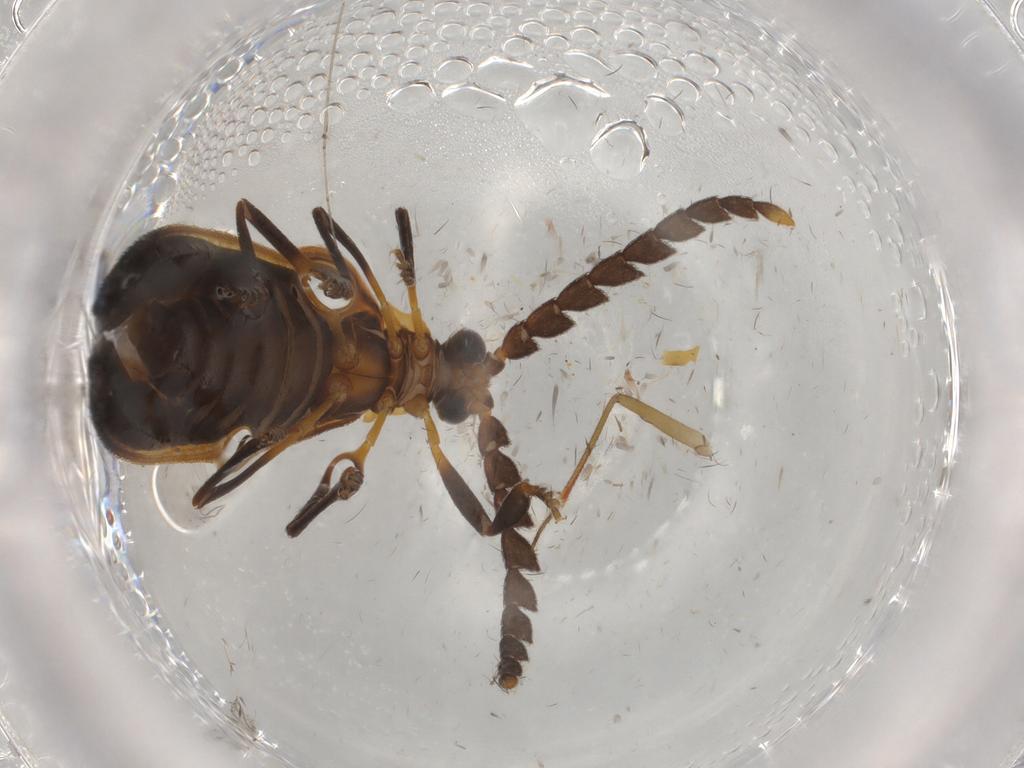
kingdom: Animalia
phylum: Arthropoda
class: Insecta
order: Coleoptera
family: Lycidae
